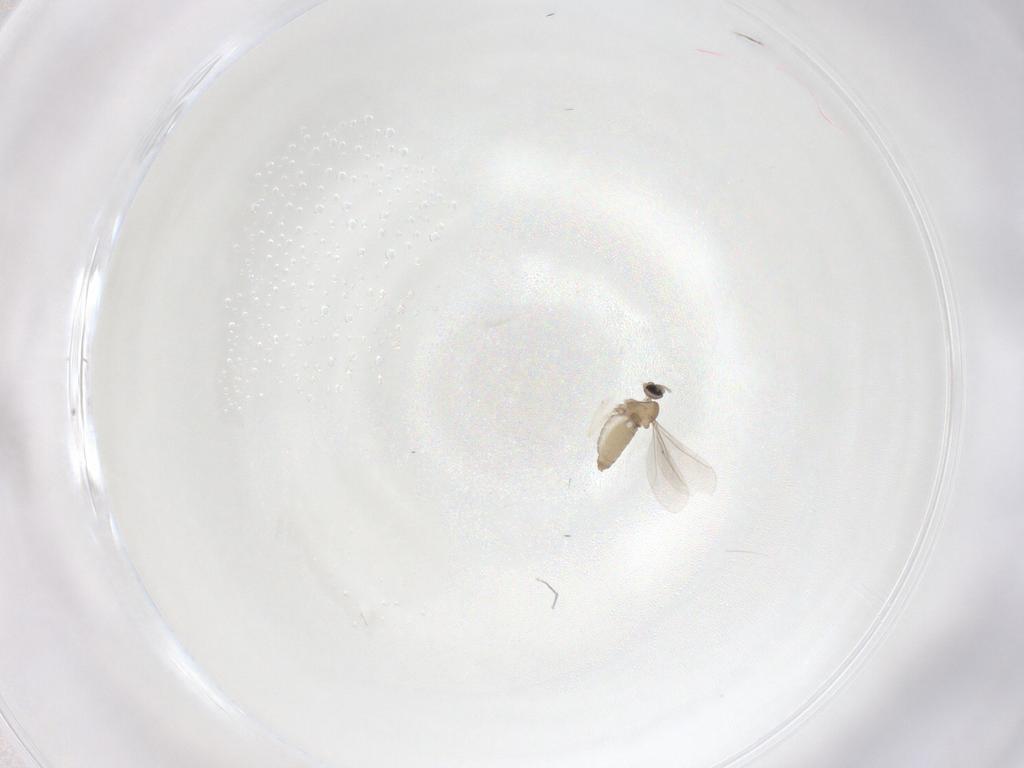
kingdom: Animalia
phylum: Arthropoda
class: Insecta
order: Diptera
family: Cecidomyiidae
